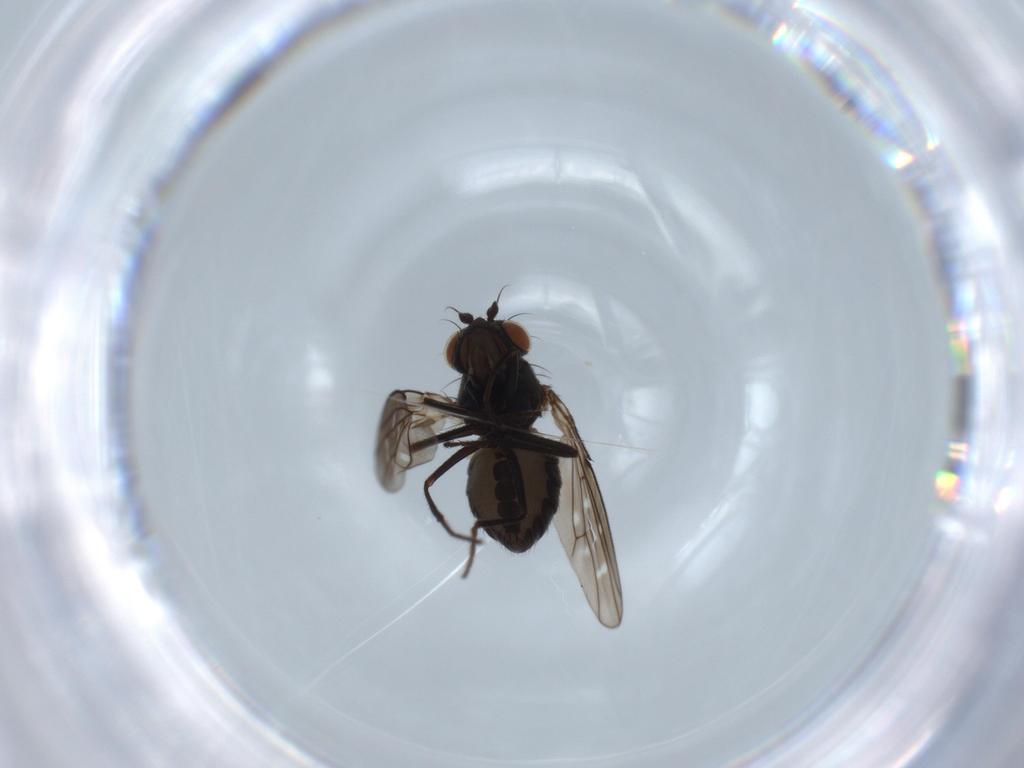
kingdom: Animalia
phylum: Arthropoda
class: Insecta
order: Diptera
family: Ephydridae
